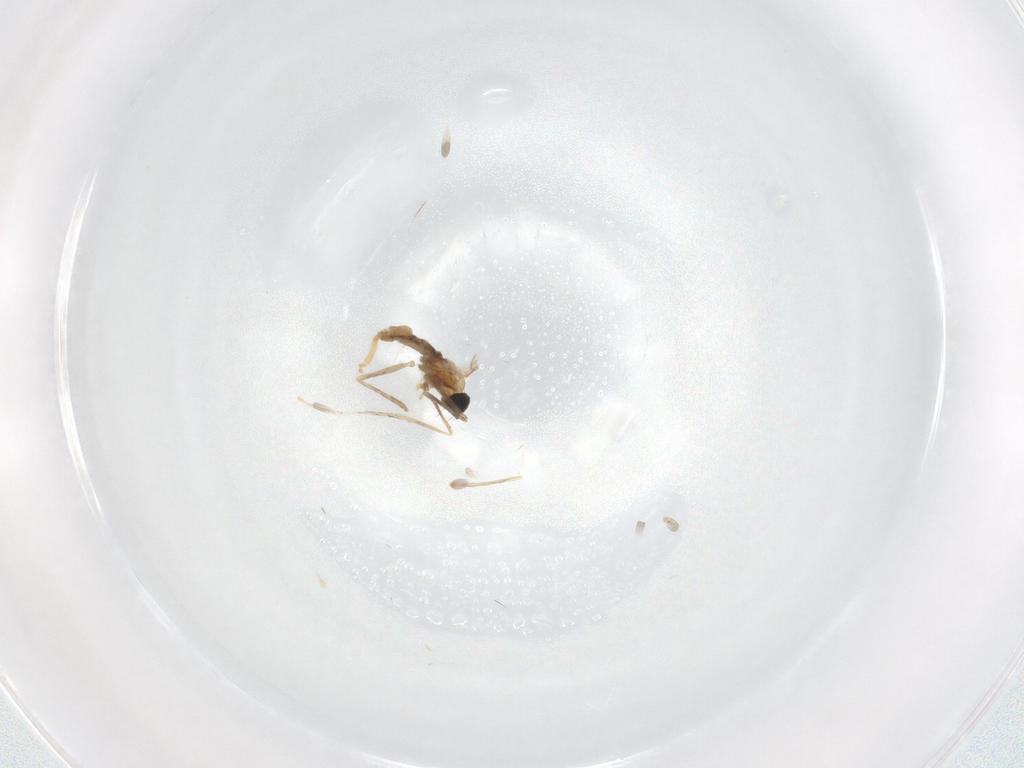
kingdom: Animalia
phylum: Arthropoda
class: Insecta
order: Diptera
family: Cecidomyiidae
